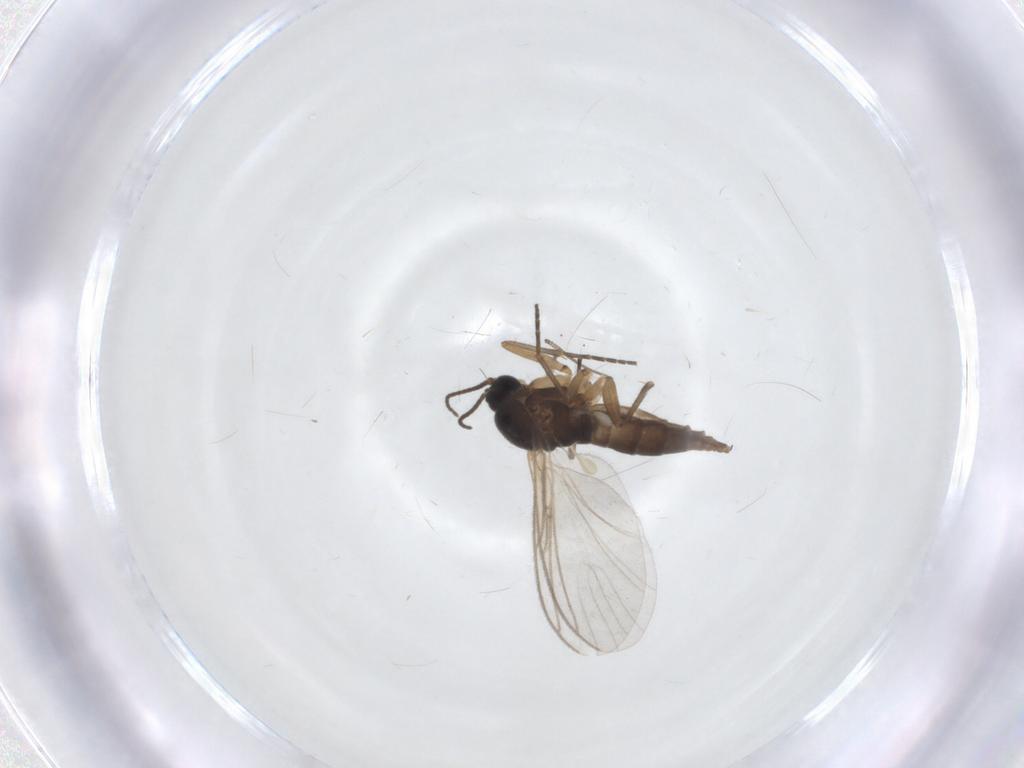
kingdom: Animalia
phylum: Arthropoda
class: Insecta
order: Diptera
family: Sciaridae
